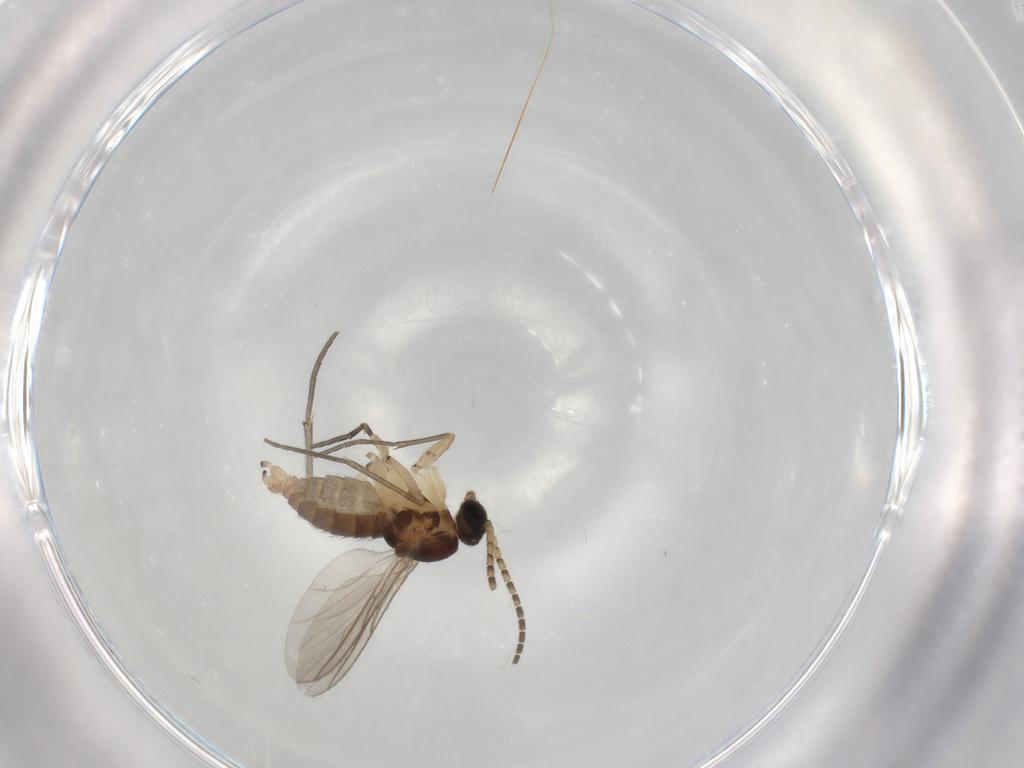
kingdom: Animalia
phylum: Arthropoda
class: Insecta
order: Diptera
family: Sciaridae
